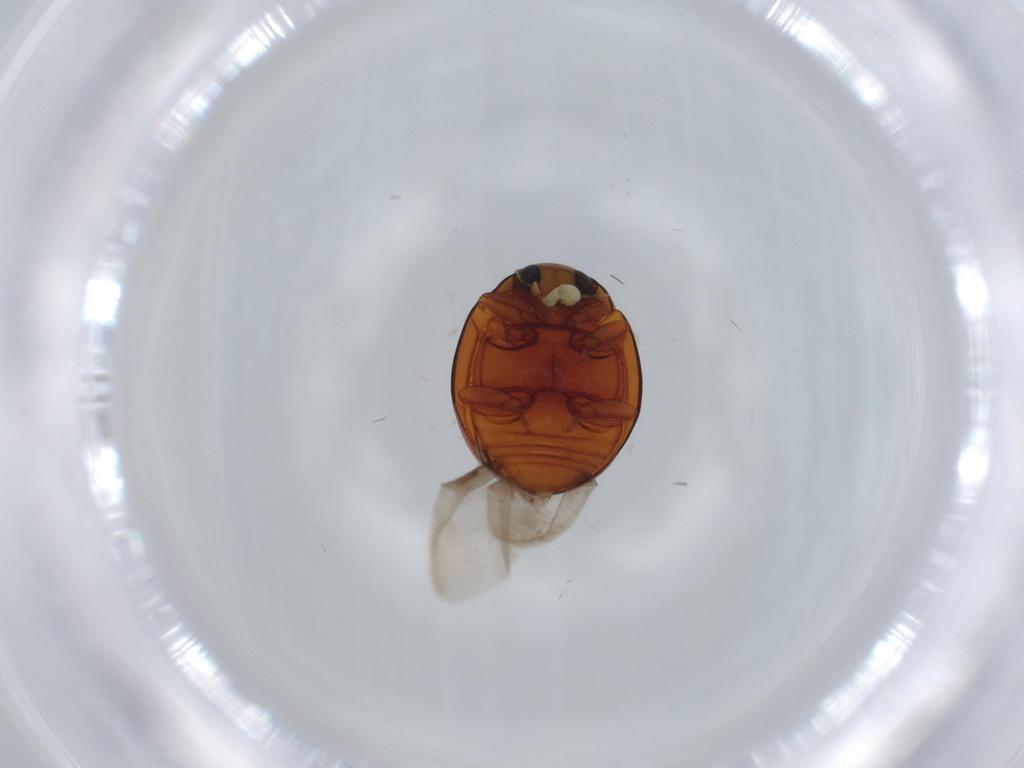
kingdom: Animalia
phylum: Arthropoda
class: Insecta
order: Coleoptera
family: Coccinellidae
